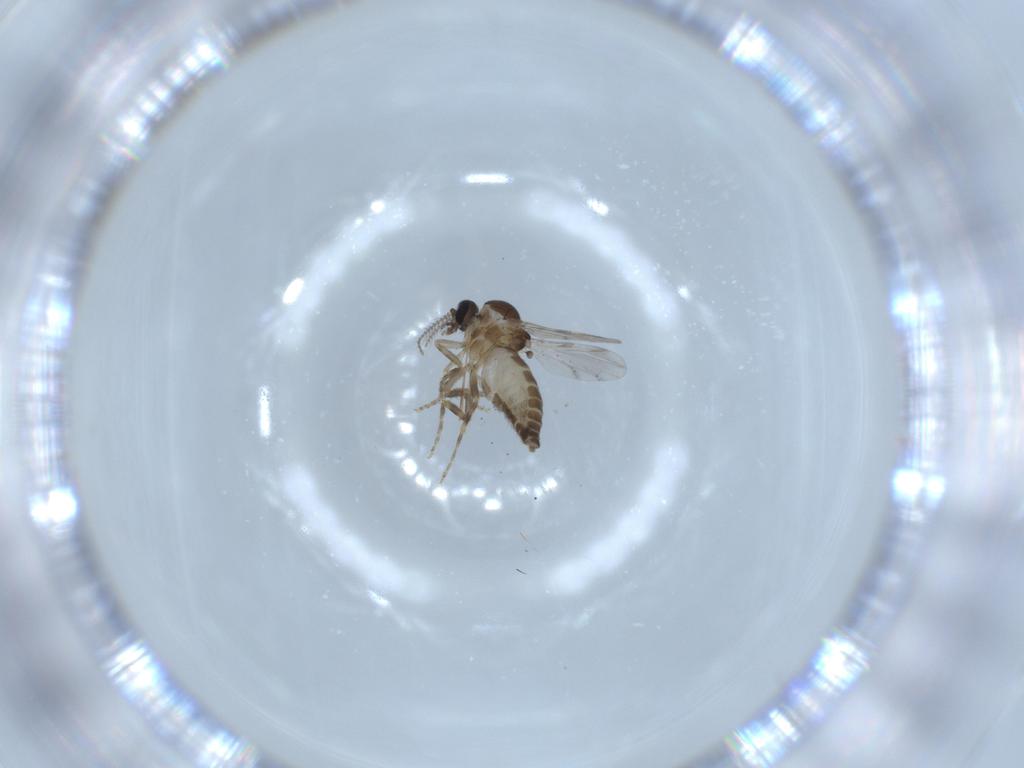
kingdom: Animalia
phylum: Arthropoda
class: Insecta
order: Diptera
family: Ceratopogonidae
